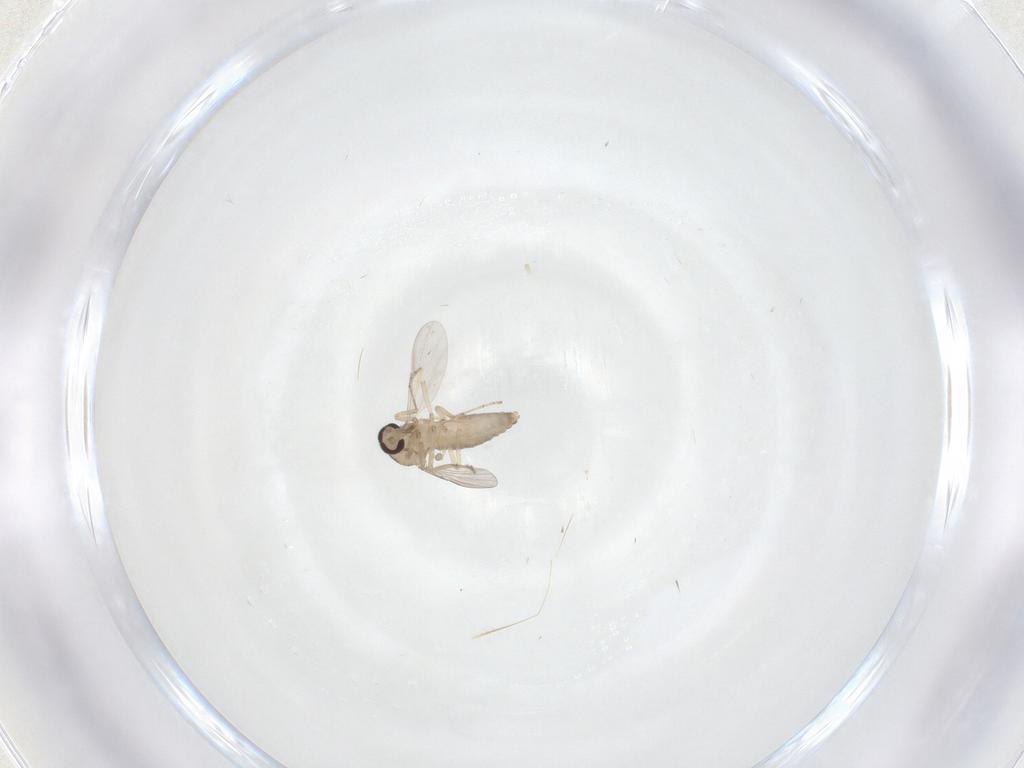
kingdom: Animalia
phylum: Arthropoda
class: Insecta
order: Diptera
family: Ceratopogonidae
